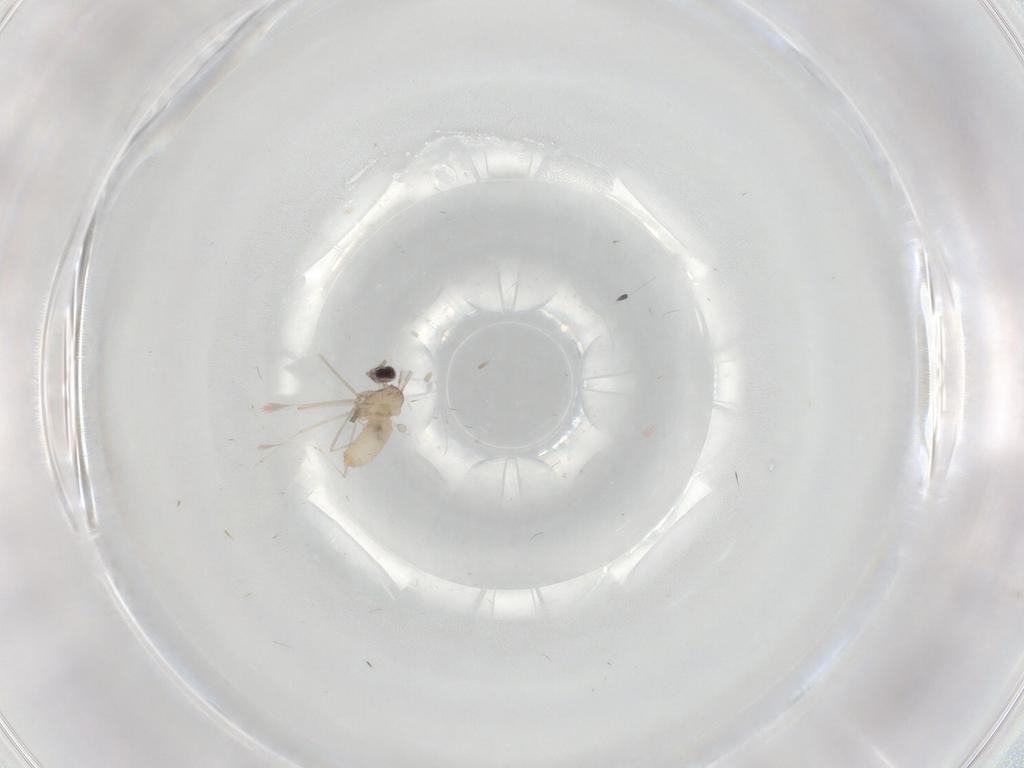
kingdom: Animalia
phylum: Arthropoda
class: Insecta
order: Diptera
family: Cecidomyiidae
